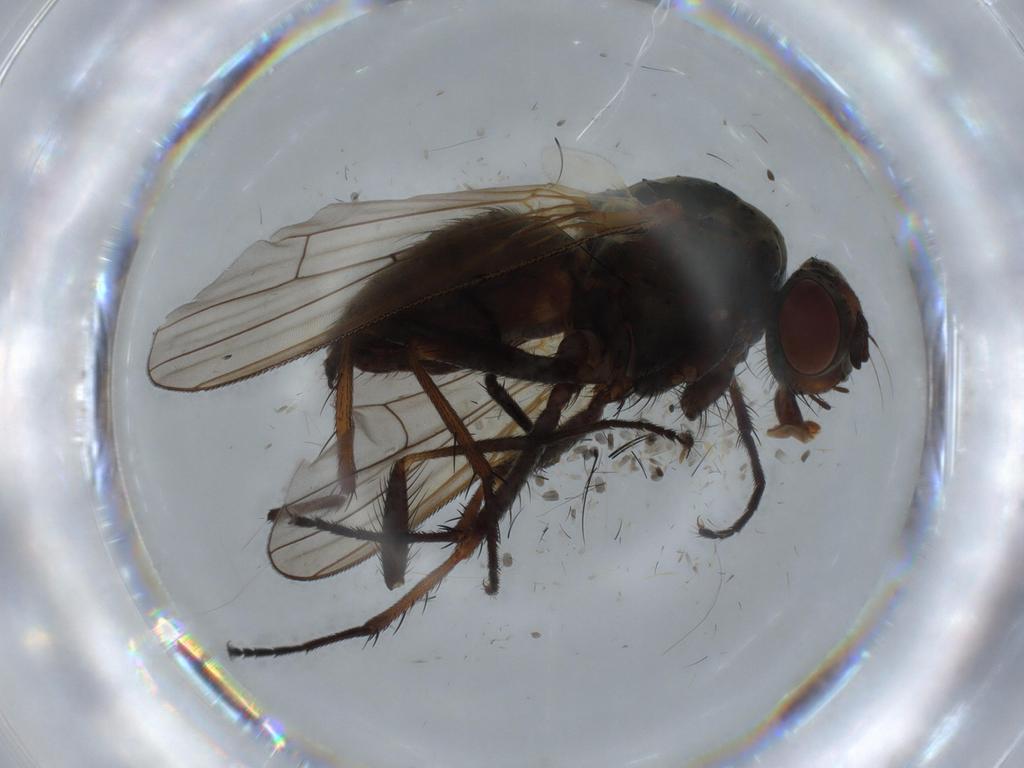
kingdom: Animalia
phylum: Arthropoda
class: Insecta
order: Diptera
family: Anthomyiidae
